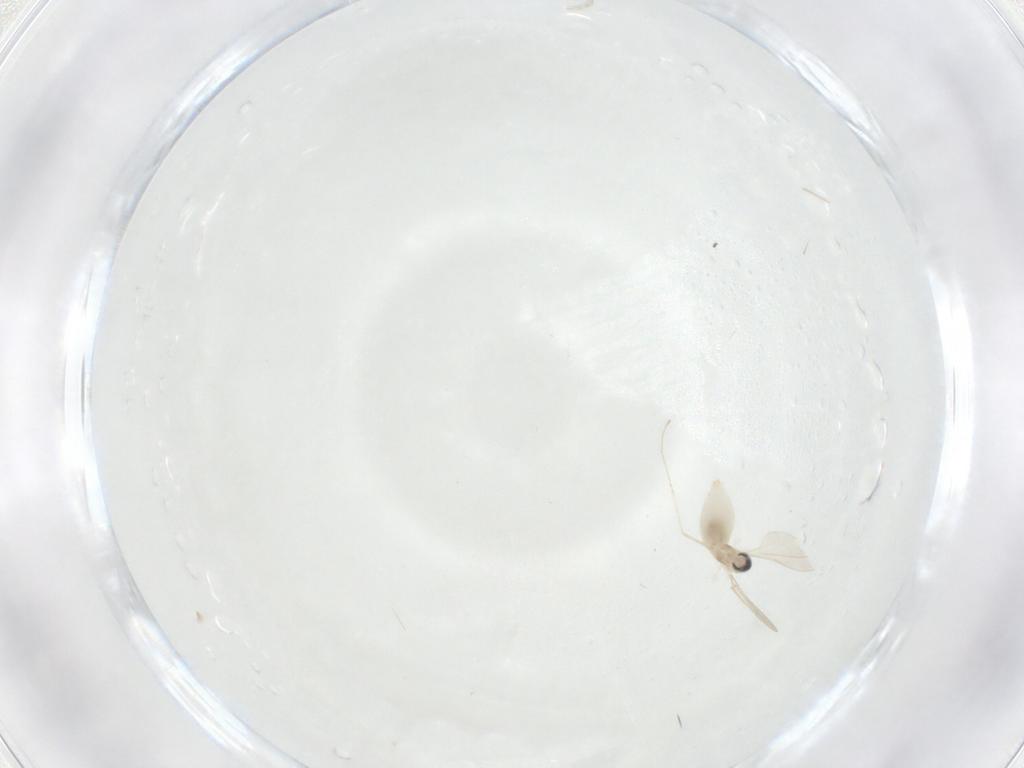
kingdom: Animalia
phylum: Arthropoda
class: Insecta
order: Diptera
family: Cecidomyiidae
